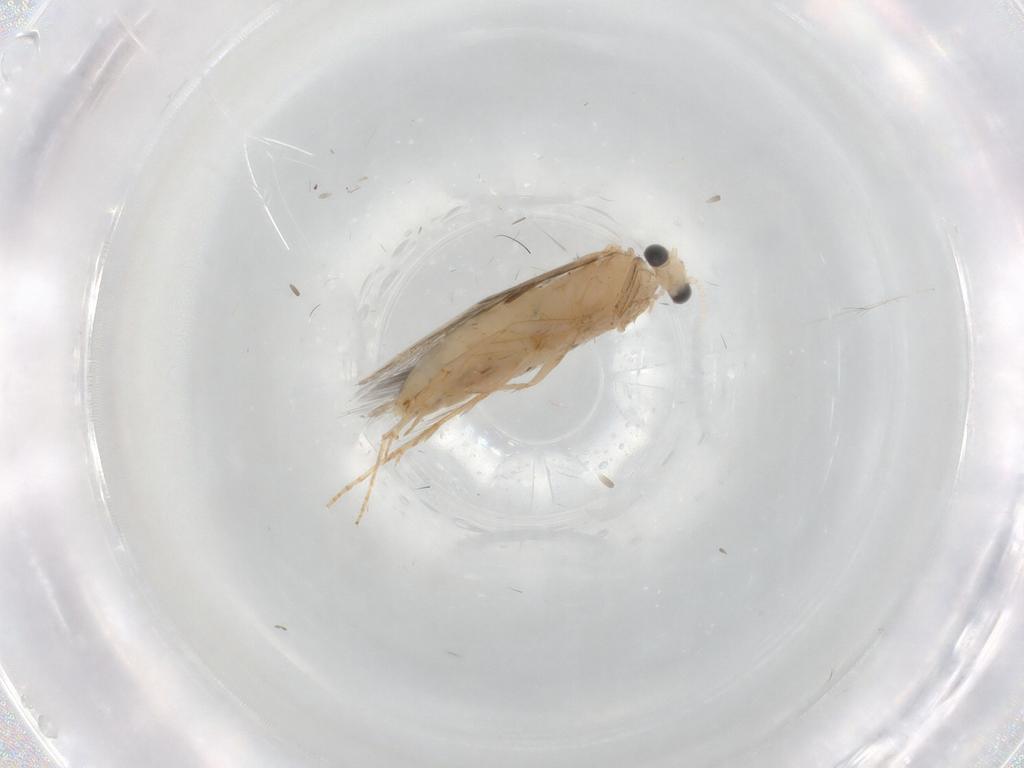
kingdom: Animalia
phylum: Arthropoda
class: Insecta
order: Trichoptera
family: Hydroptilidae
